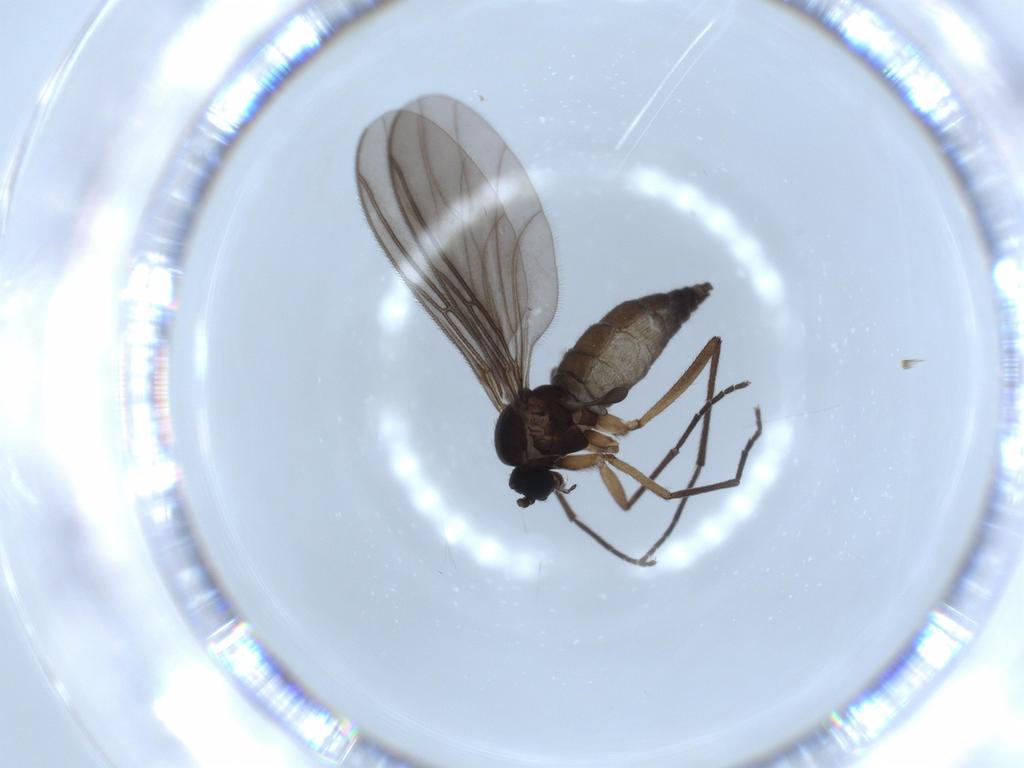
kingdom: Animalia
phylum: Arthropoda
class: Insecta
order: Diptera
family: Sciaridae
